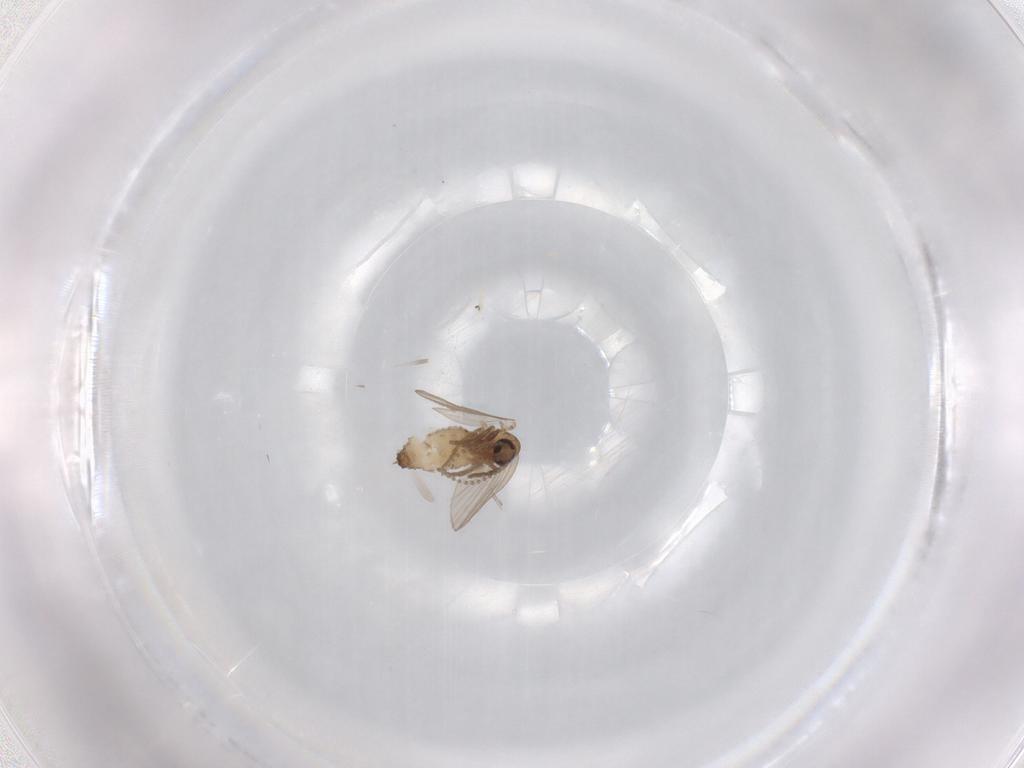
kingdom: Animalia
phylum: Arthropoda
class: Insecta
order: Diptera
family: Psychodidae
